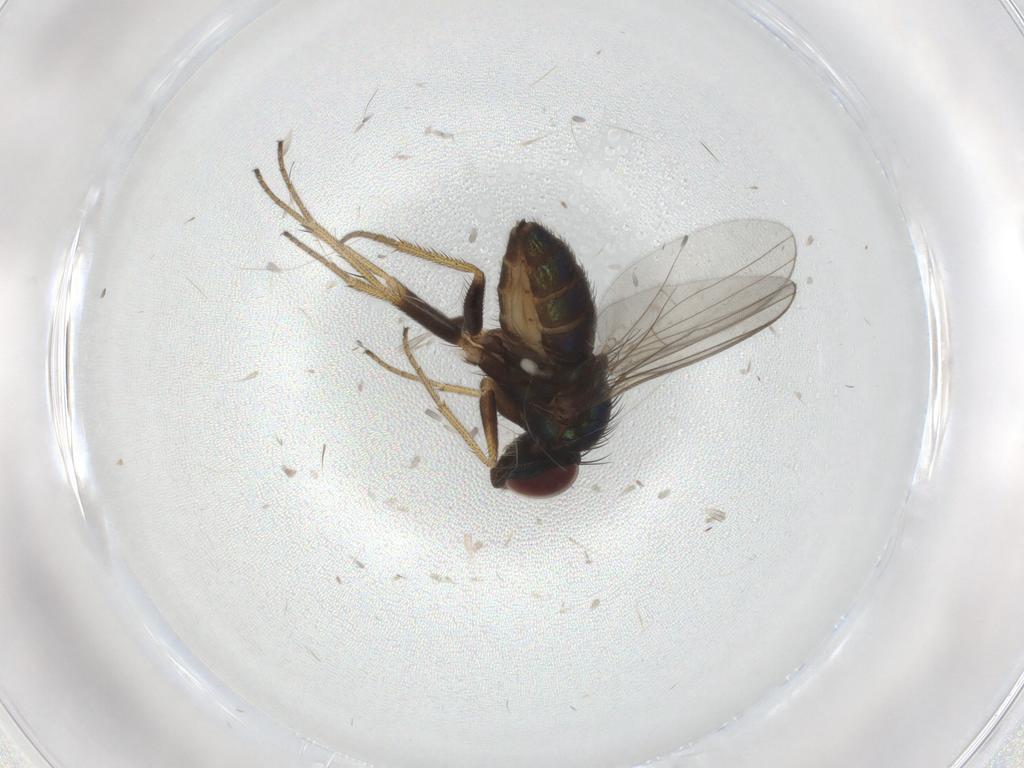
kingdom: Animalia
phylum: Arthropoda
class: Insecta
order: Diptera
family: Dolichopodidae
